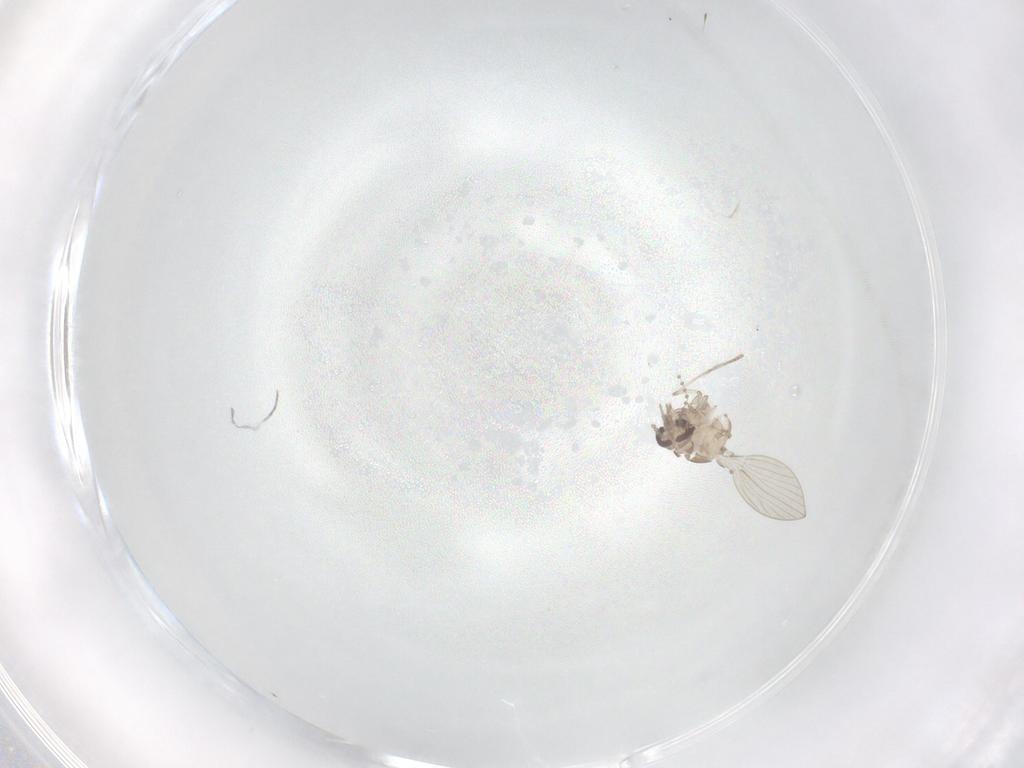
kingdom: Animalia
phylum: Arthropoda
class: Insecta
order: Diptera
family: Psychodidae
